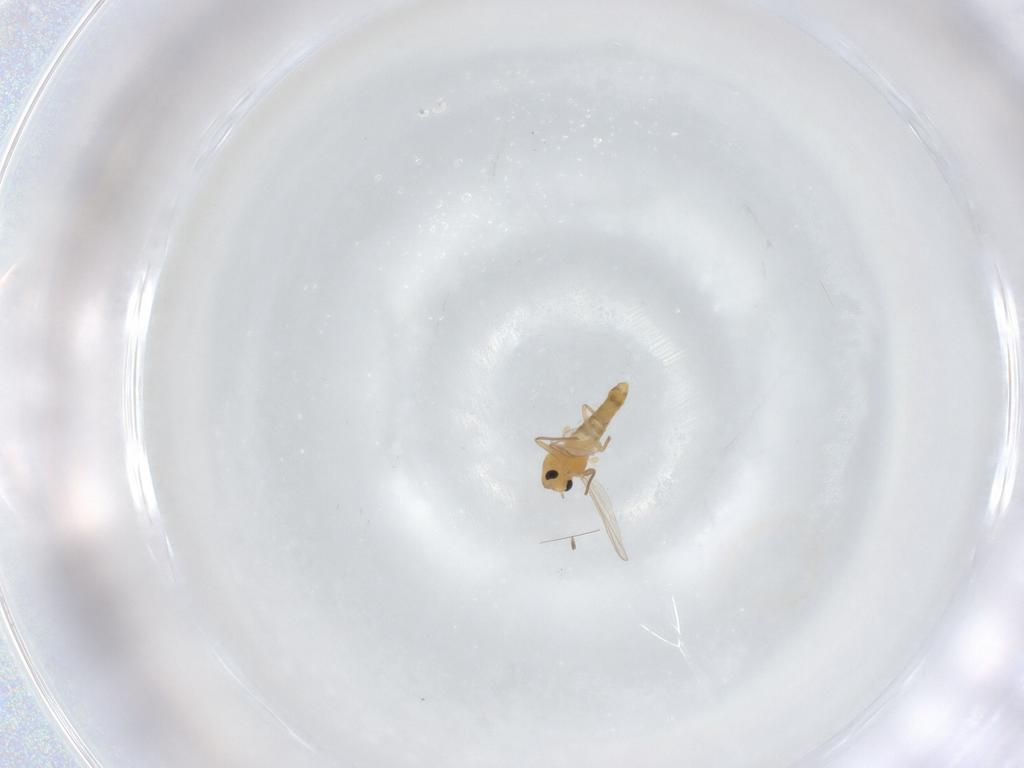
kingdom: Animalia
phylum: Arthropoda
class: Insecta
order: Diptera
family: Chironomidae
